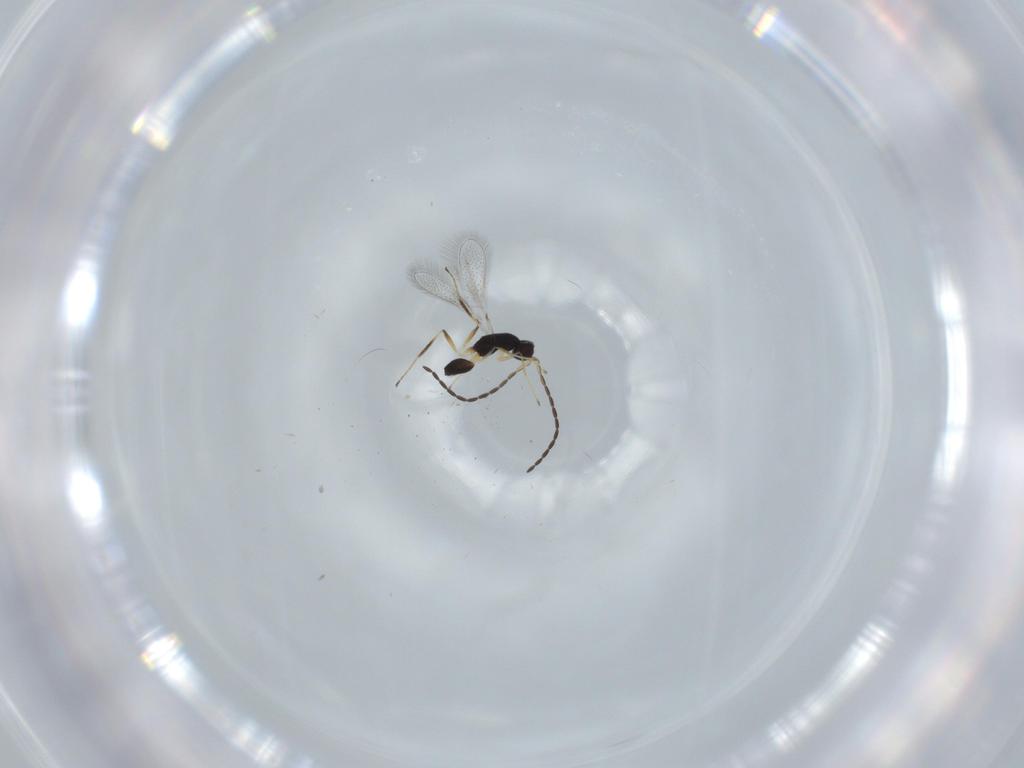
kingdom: Animalia
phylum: Arthropoda
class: Insecta
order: Hymenoptera
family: Mymaridae
